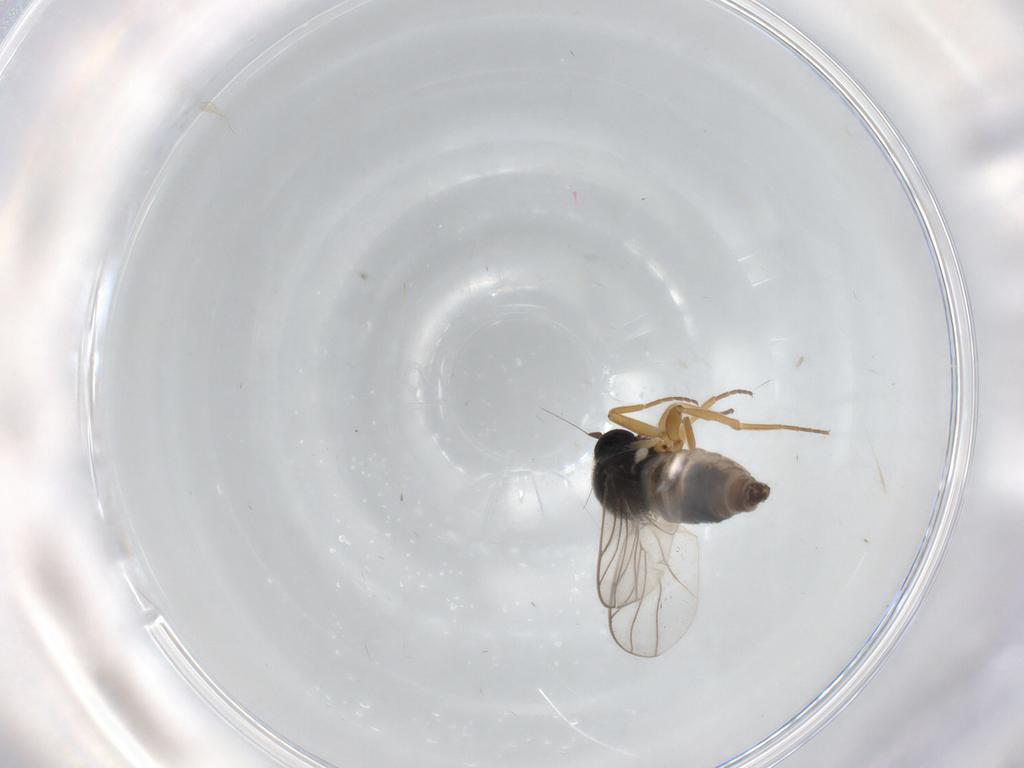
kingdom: Animalia
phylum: Arthropoda
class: Insecta
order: Diptera
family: Hybotidae
